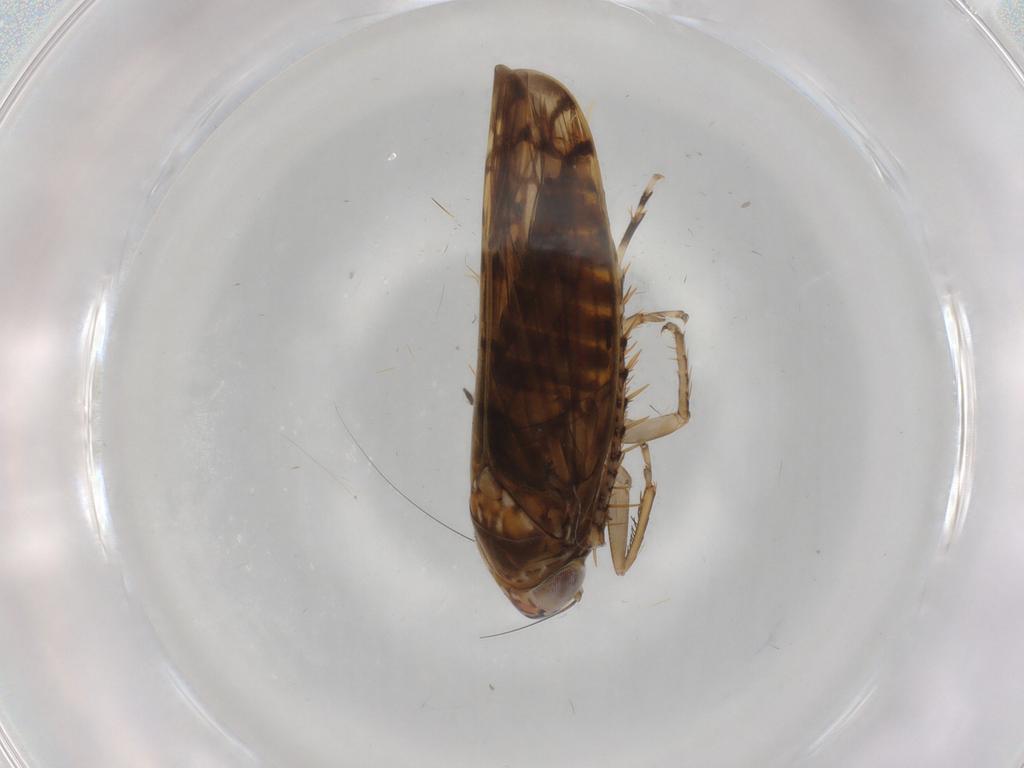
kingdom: Animalia
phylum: Arthropoda
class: Insecta
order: Hemiptera
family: Cicadellidae
